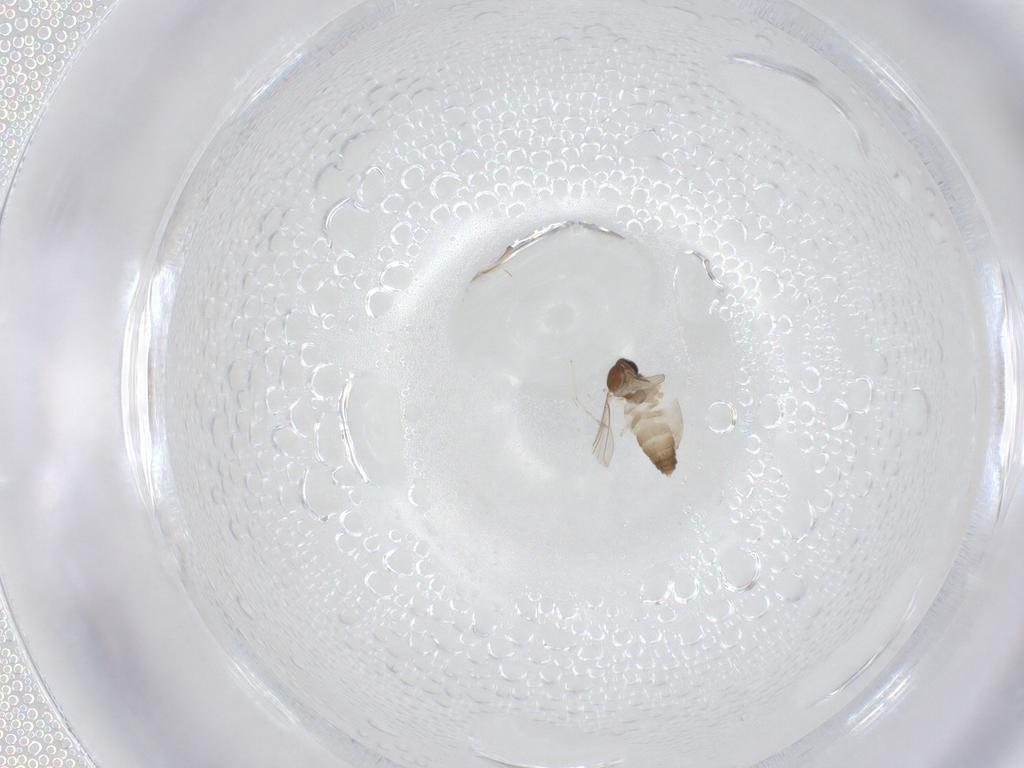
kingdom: Animalia
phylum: Arthropoda
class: Insecta
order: Diptera
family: Cecidomyiidae
